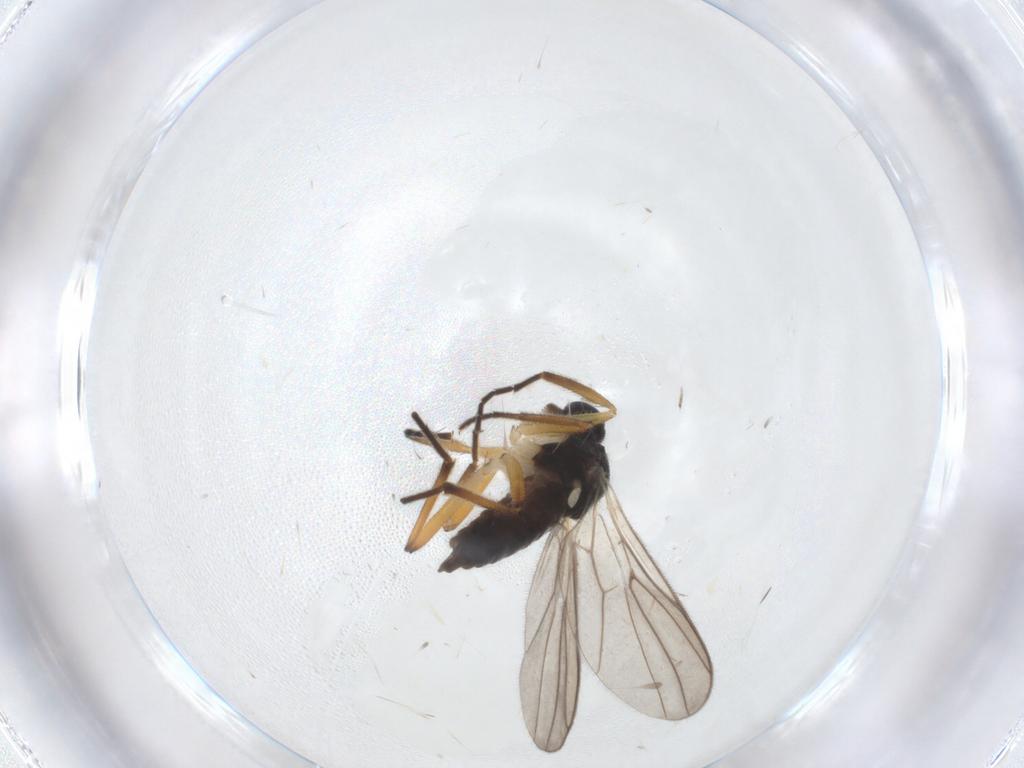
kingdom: Animalia
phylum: Arthropoda
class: Insecta
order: Diptera
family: Hybotidae
